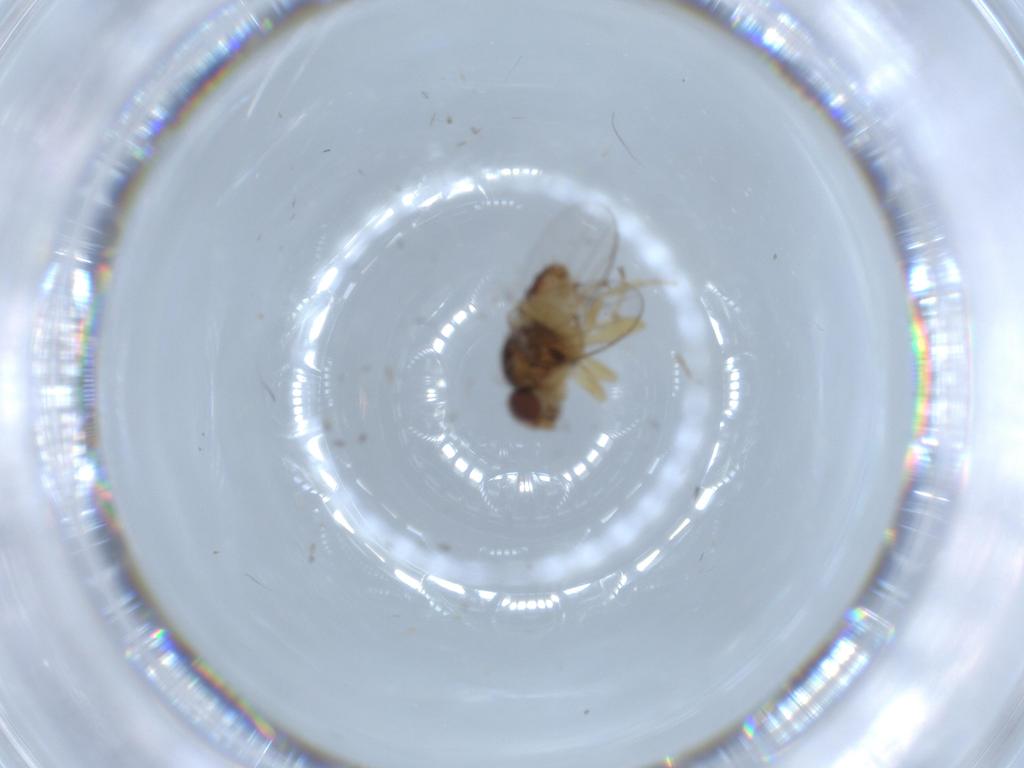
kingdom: Animalia
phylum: Arthropoda
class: Insecta
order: Diptera
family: Chloropidae
